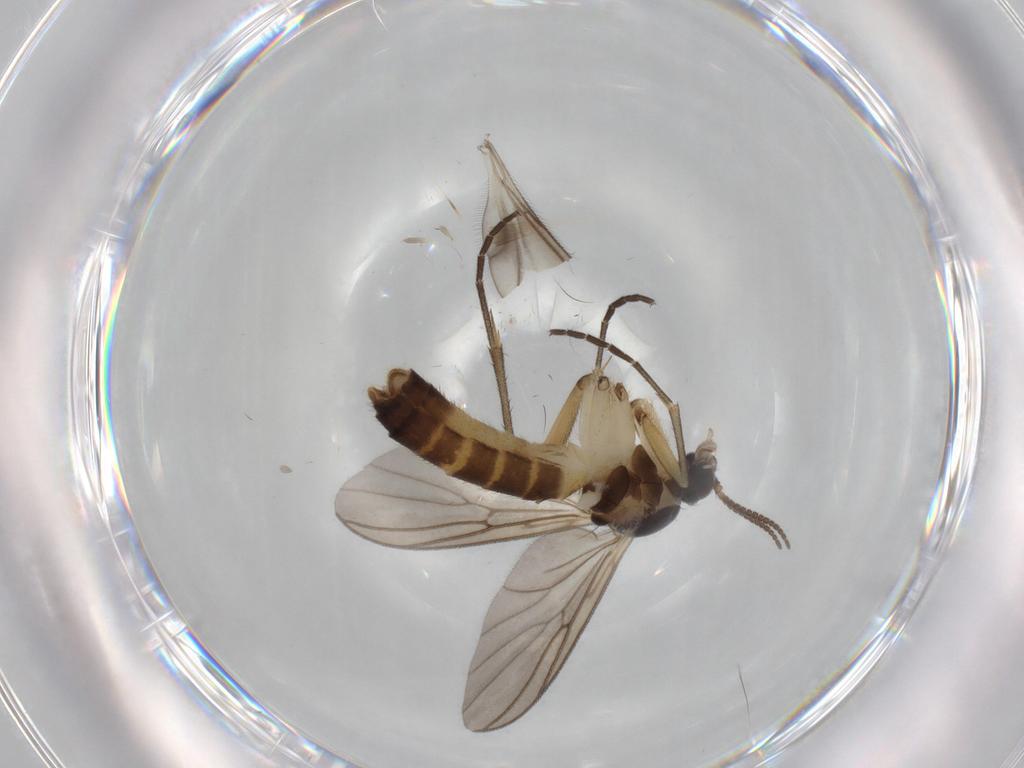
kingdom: Animalia
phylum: Arthropoda
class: Insecta
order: Diptera
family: Mycetophilidae
